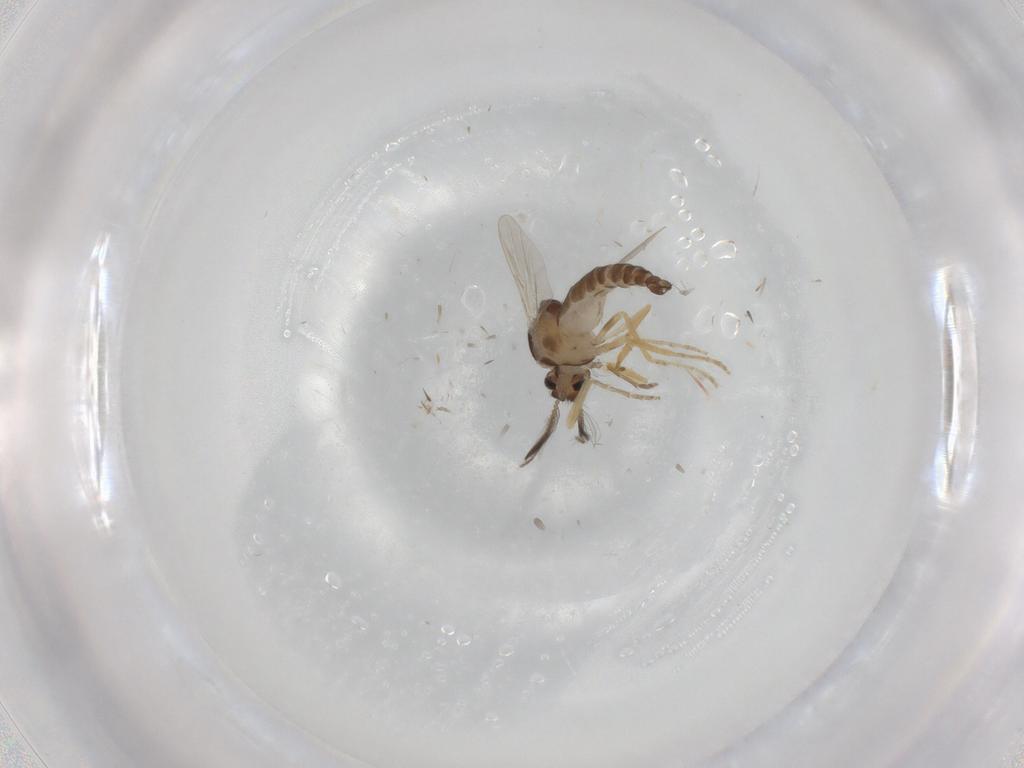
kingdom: Animalia
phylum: Arthropoda
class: Insecta
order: Diptera
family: Ceratopogonidae
